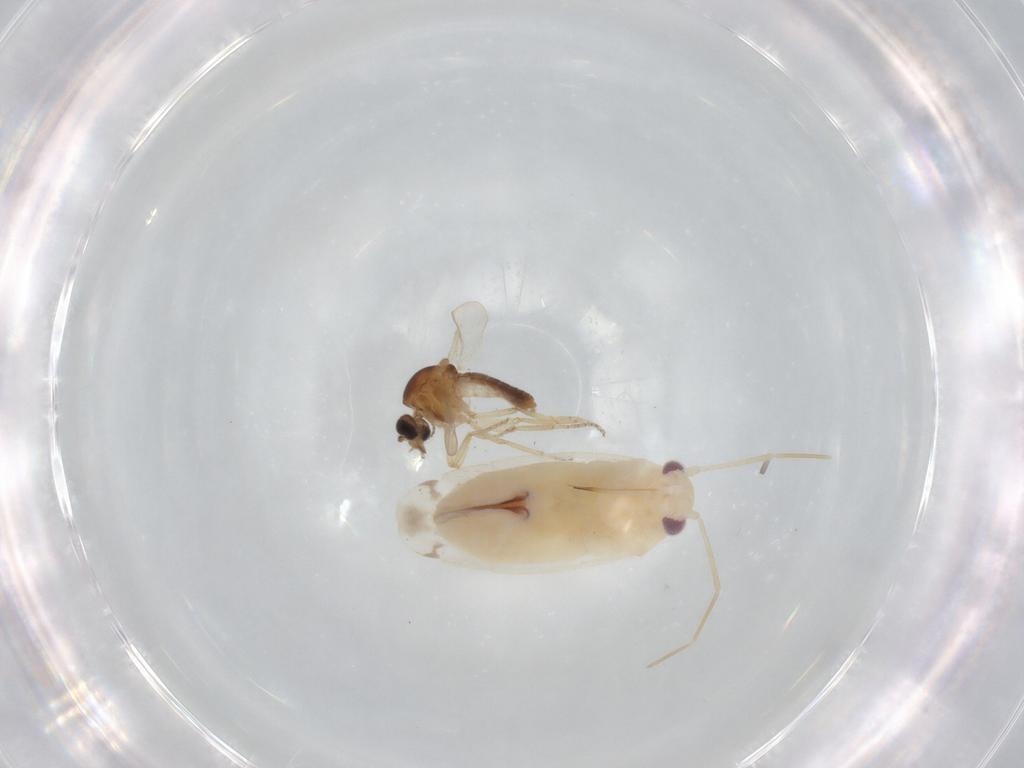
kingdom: Animalia
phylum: Arthropoda
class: Insecta
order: Diptera
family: Ceratopogonidae
